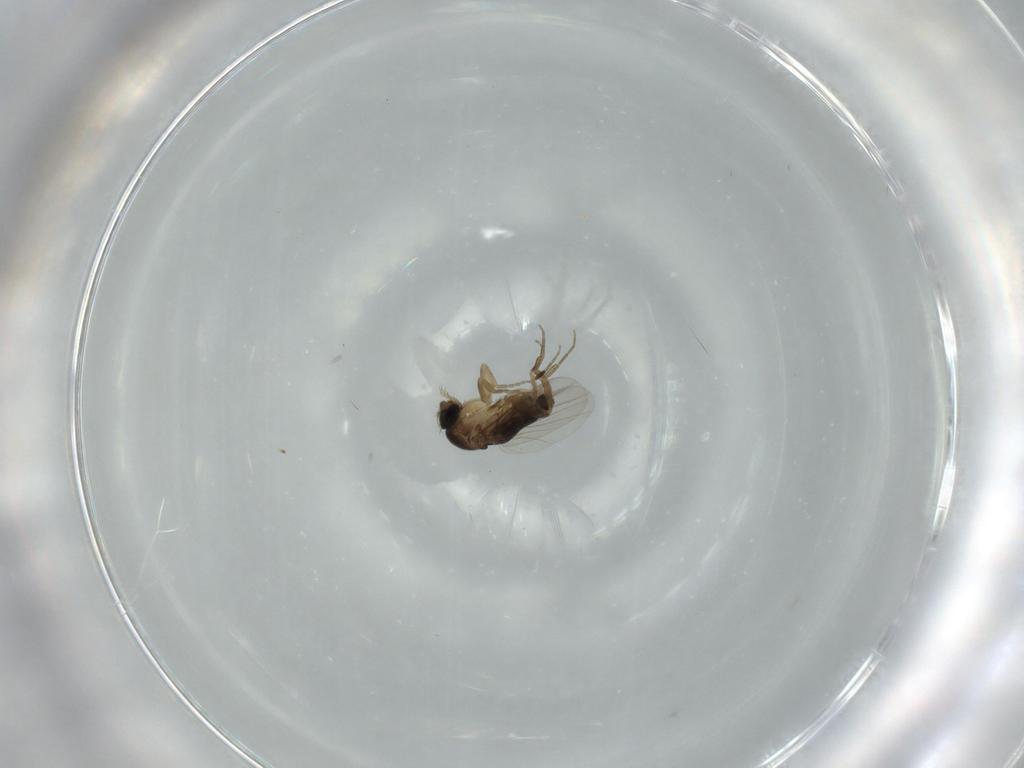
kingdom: Animalia
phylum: Arthropoda
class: Insecta
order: Diptera
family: Phoridae
